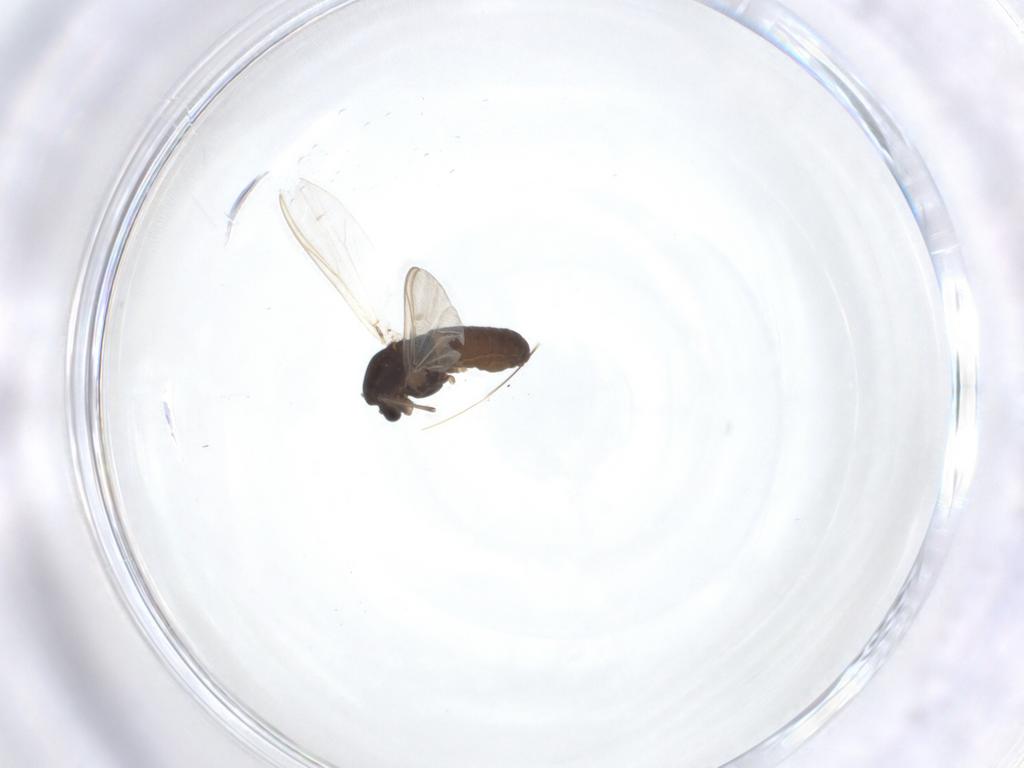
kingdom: Animalia
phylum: Arthropoda
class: Insecta
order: Diptera
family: Chironomidae
